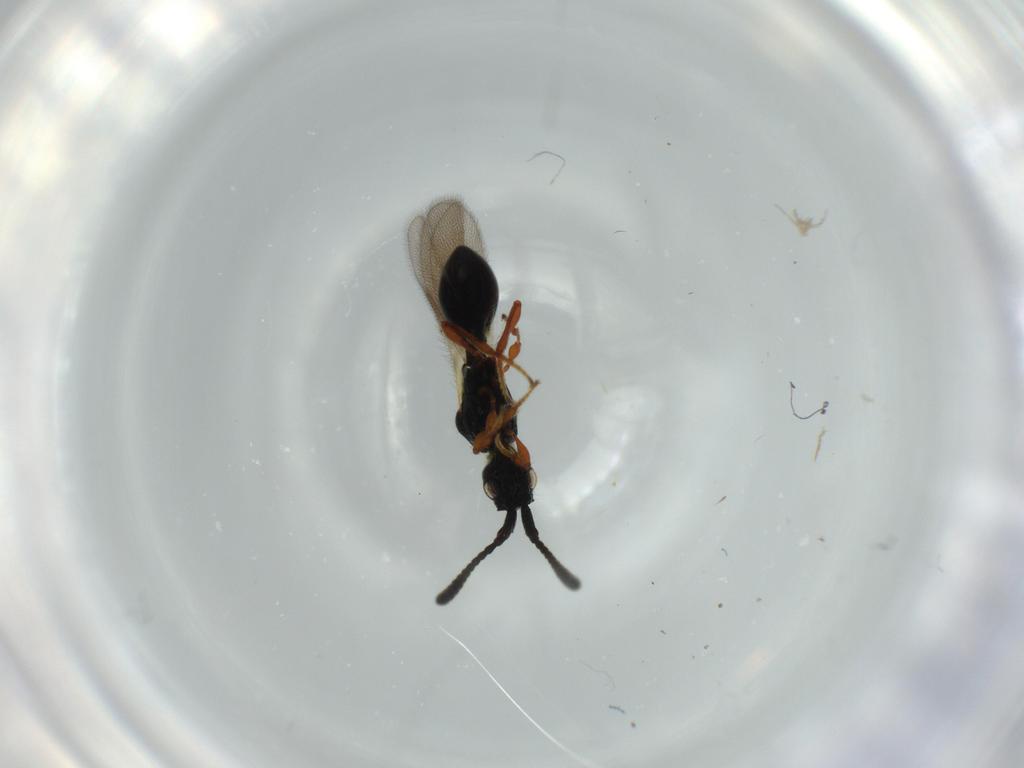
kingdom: Animalia
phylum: Arthropoda
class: Insecta
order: Hymenoptera
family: Diapriidae
